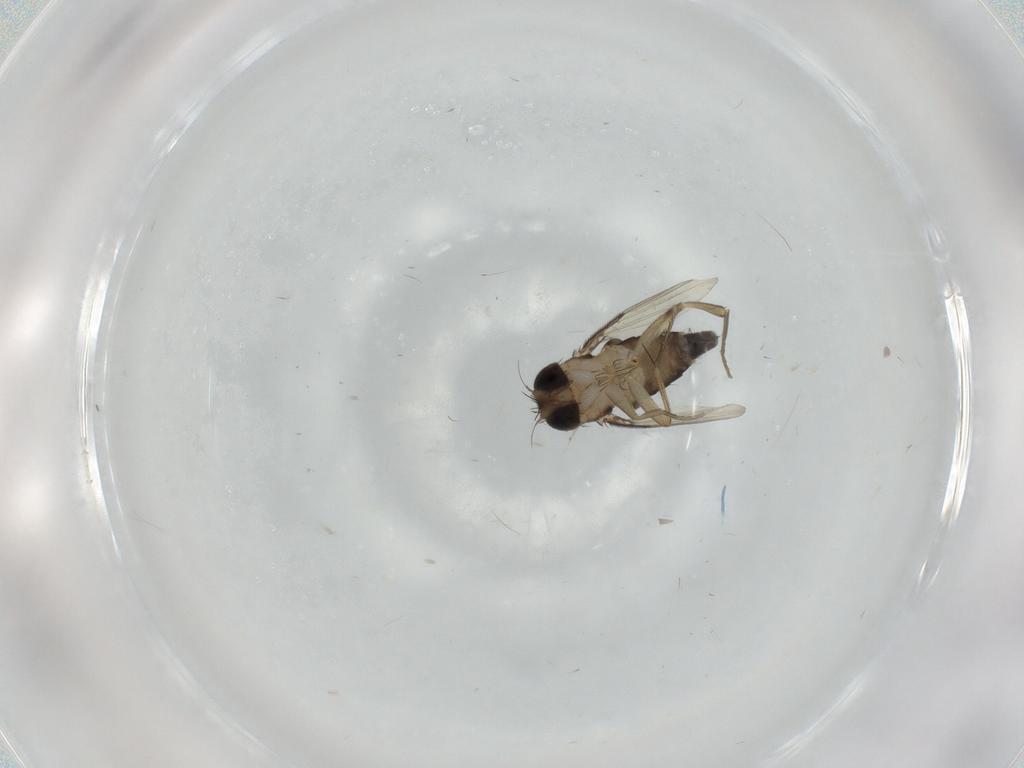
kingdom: Animalia
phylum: Arthropoda
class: Insecta
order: Diptera
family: Phoridae
